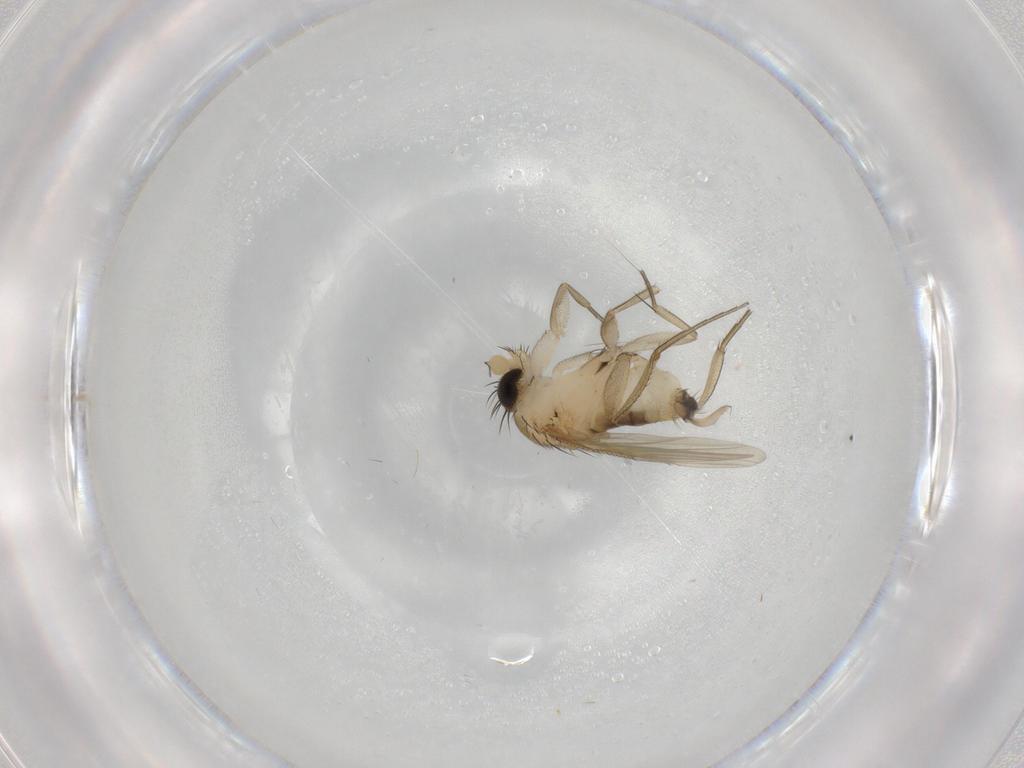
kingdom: Animalia
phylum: Arthropoda
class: Insecta
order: Diptera
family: Phoridae
